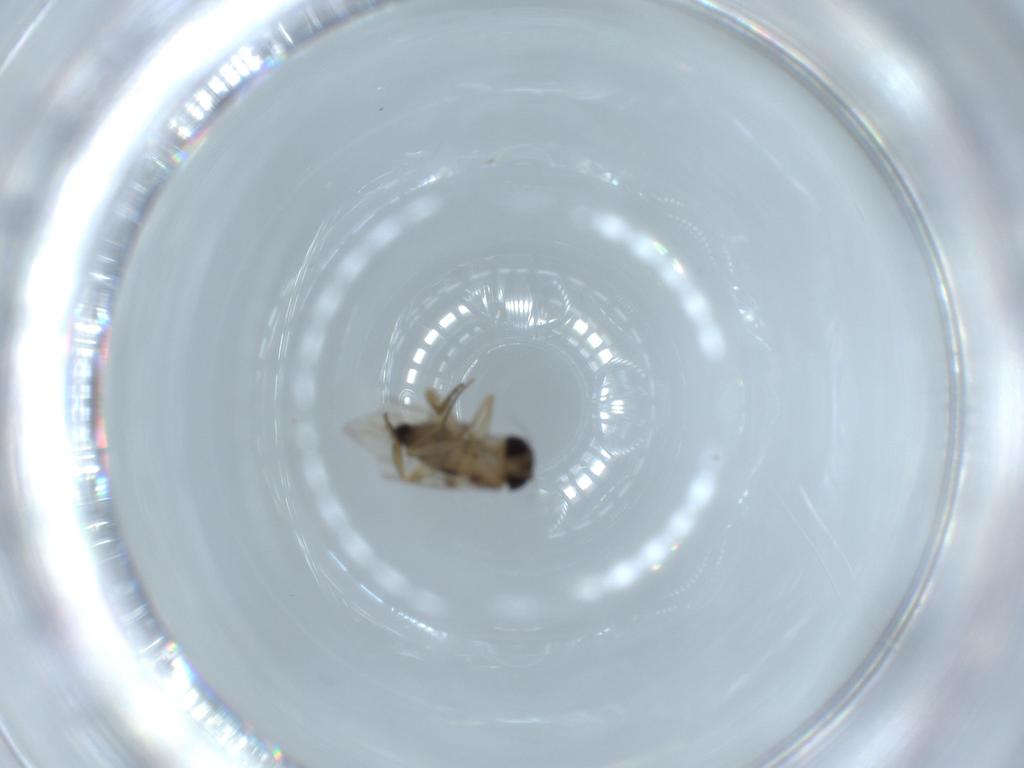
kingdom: Animalia
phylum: Arthropoda
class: Insecta
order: Diptera
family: Phoridae
